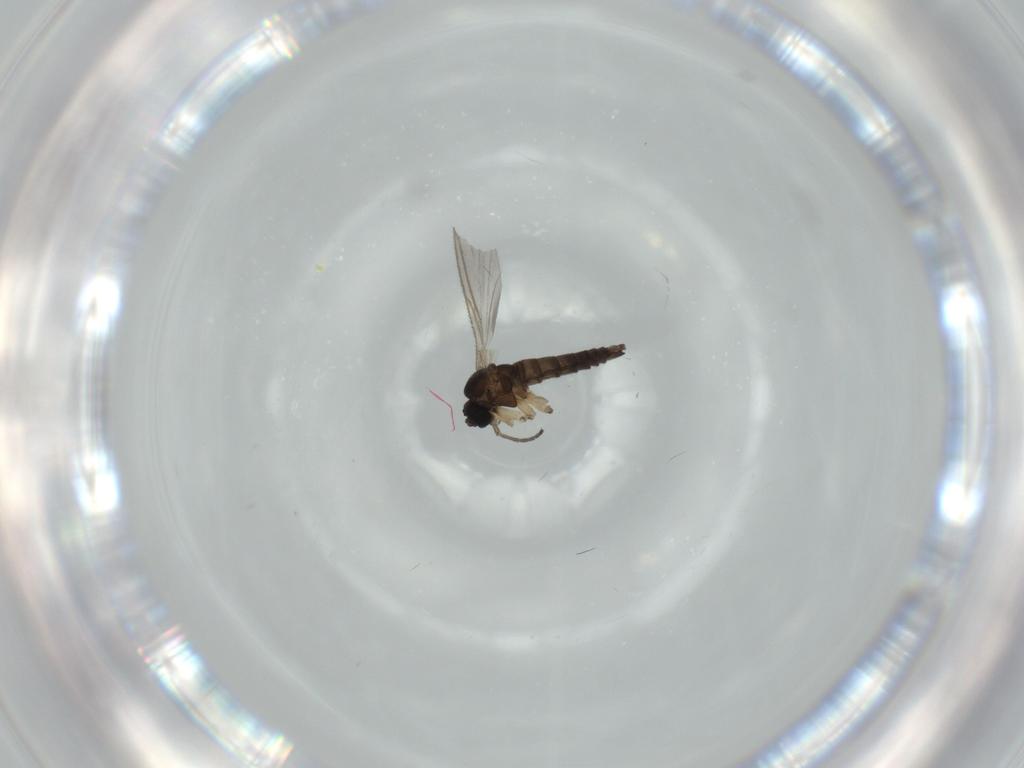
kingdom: Animalia
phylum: Arthropoda
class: Insecta
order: Diptera
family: Sciaridae
